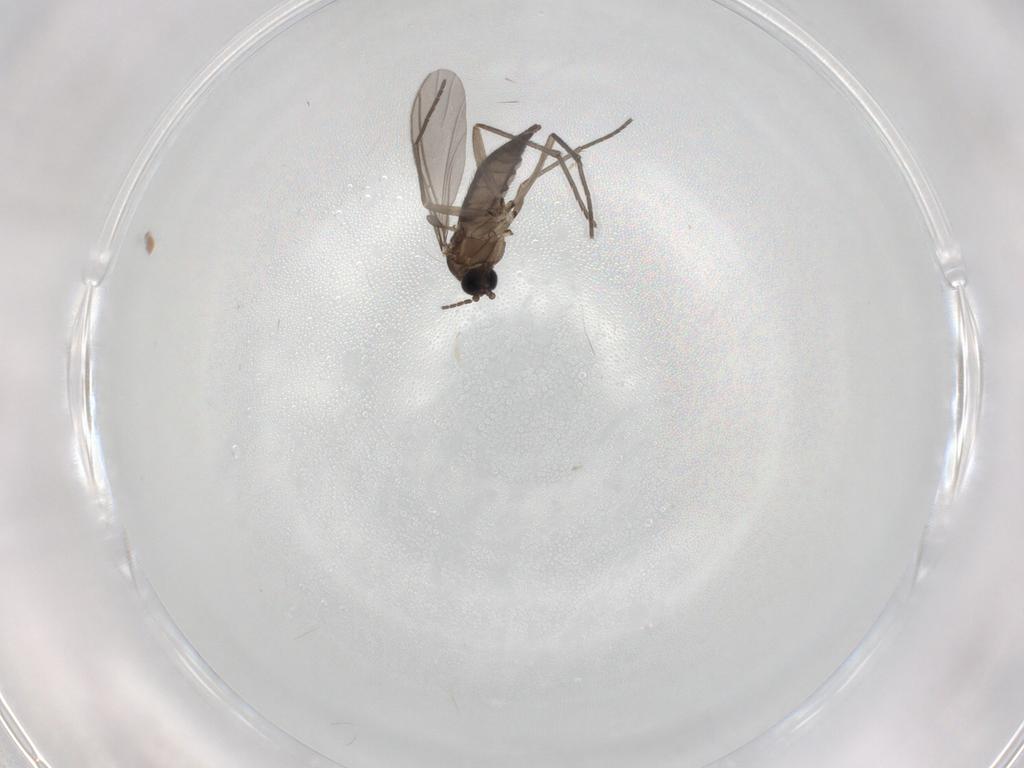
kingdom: Animalia
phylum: Arthropoda
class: Insecta
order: Diptera
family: Sciaridae
